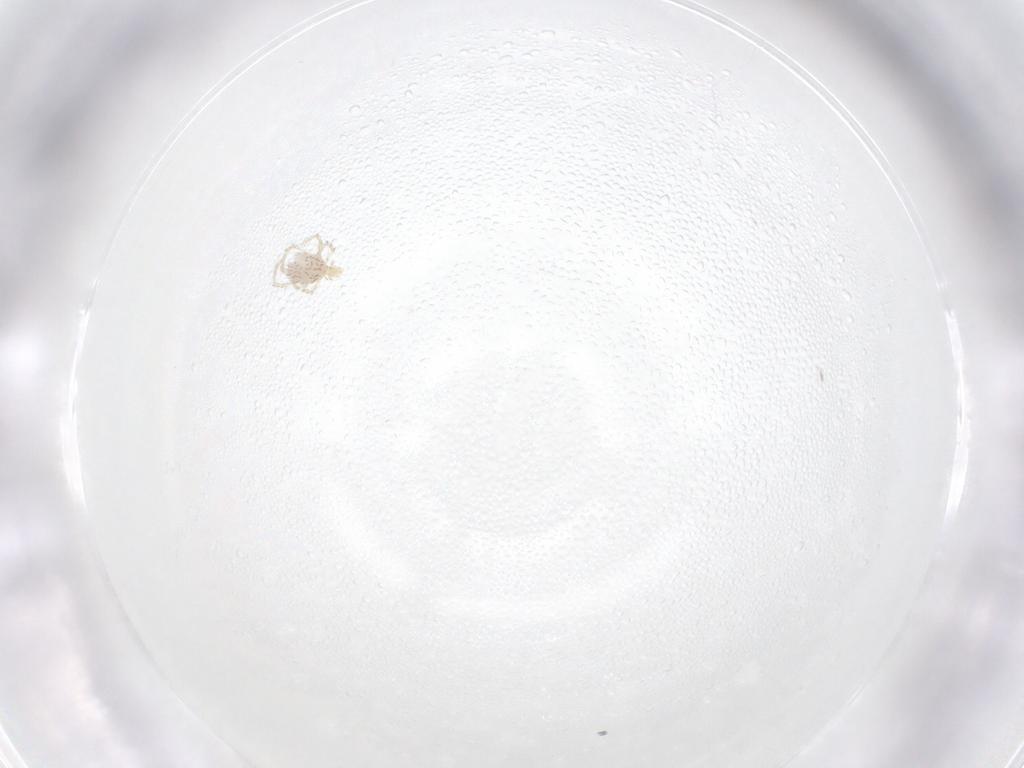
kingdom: Animalia
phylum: Arthropoda
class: Arachnida
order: Trombidiformes
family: Erythraeidae
